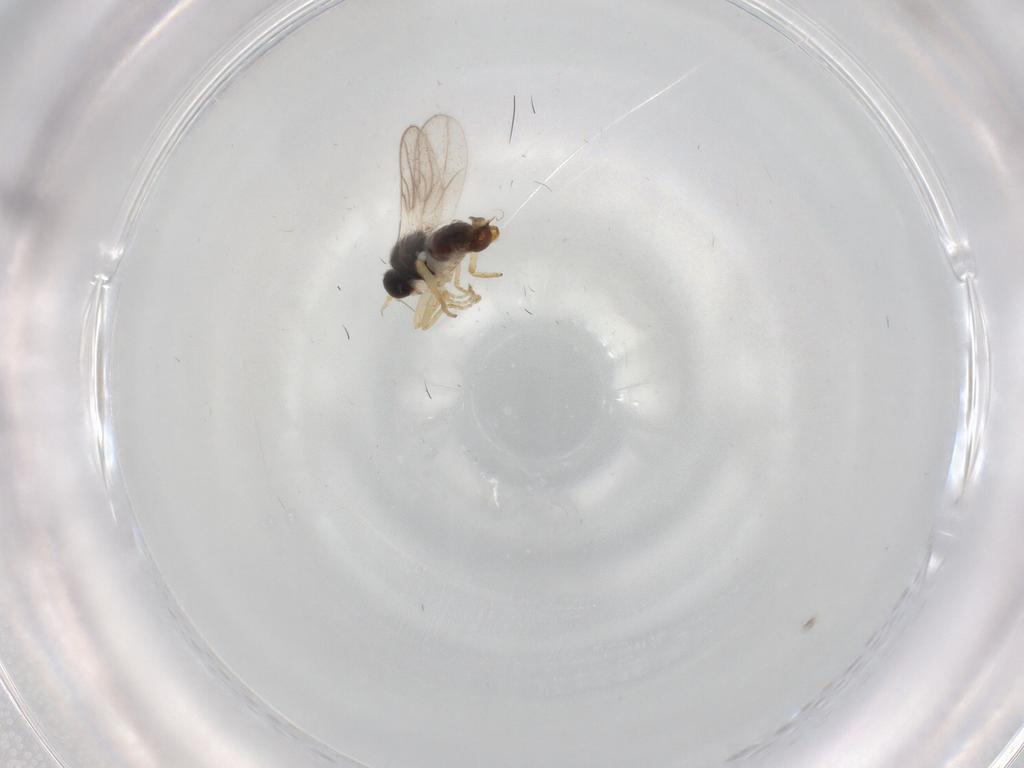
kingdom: Animalia
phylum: Arthropoda
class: Insecta
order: Diptera
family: Hybotidae
